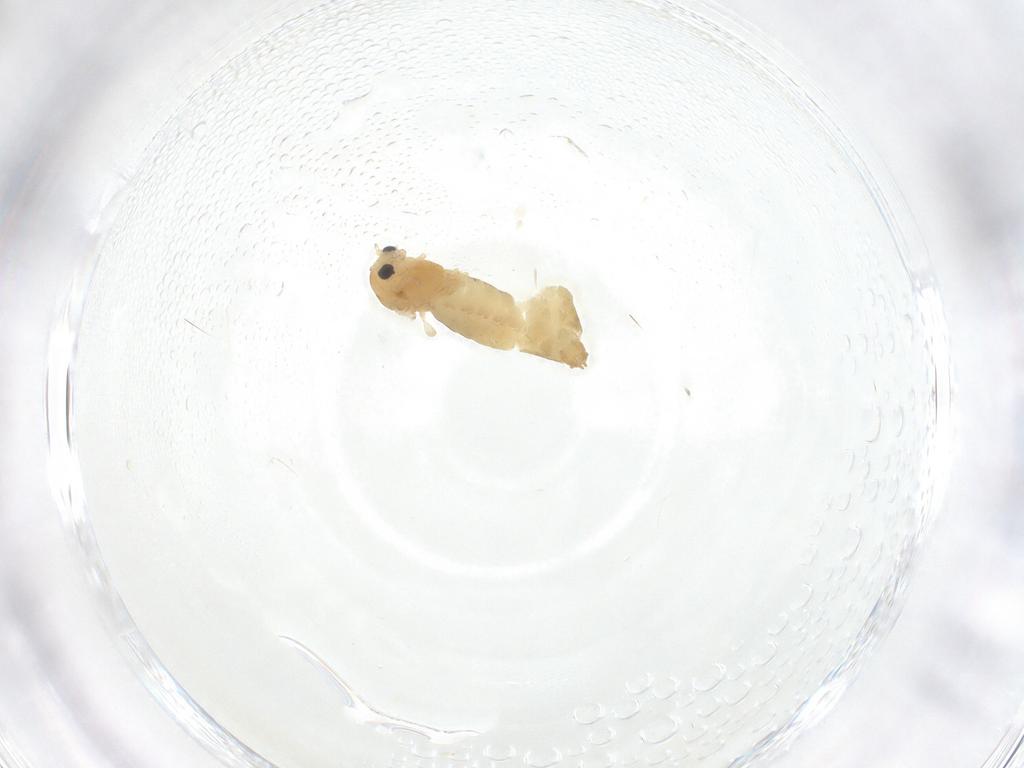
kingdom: Animalia
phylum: Arthropoda
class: Insecta
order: Diptera
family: Chironomidae
